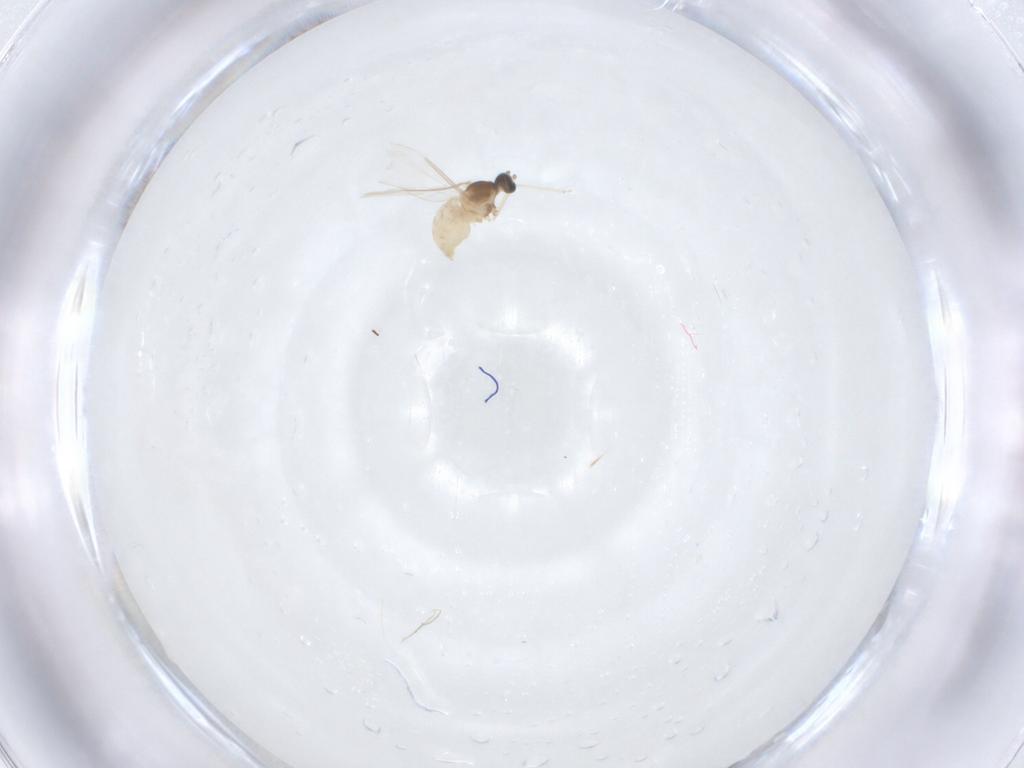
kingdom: Animalia
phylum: Arthropoda
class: Insecta
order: Diptera
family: Cecidomyiidae
